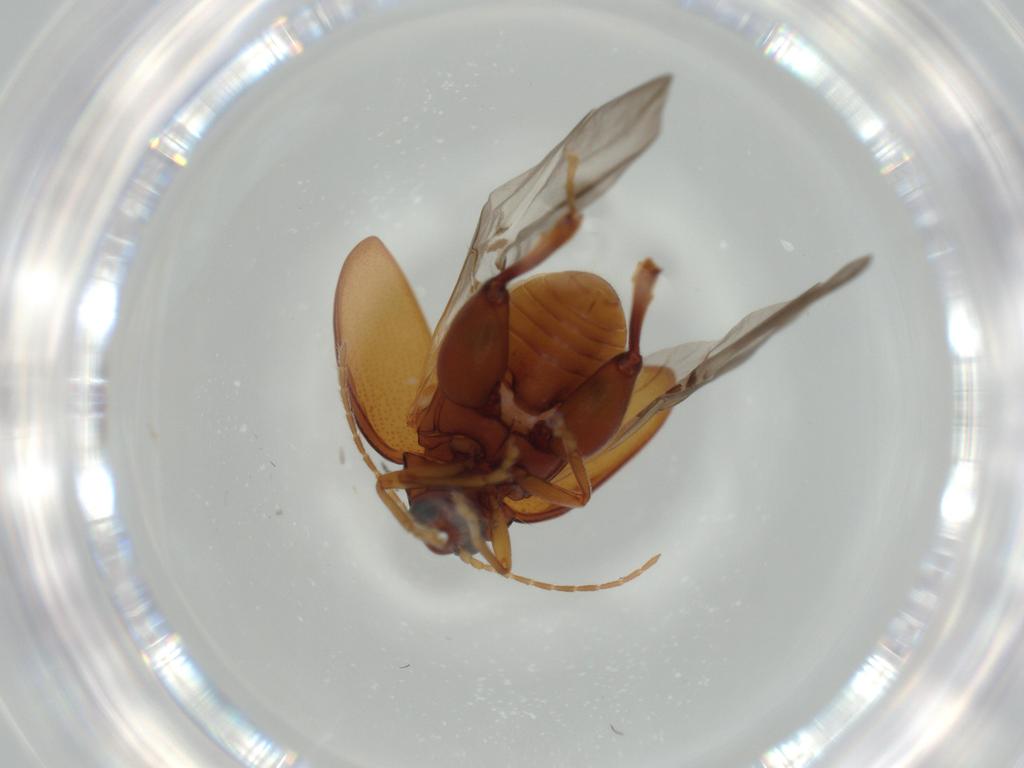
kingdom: Animalia
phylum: Arthropoda
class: Insecta
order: Coleoptera
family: Chrysomelidae
